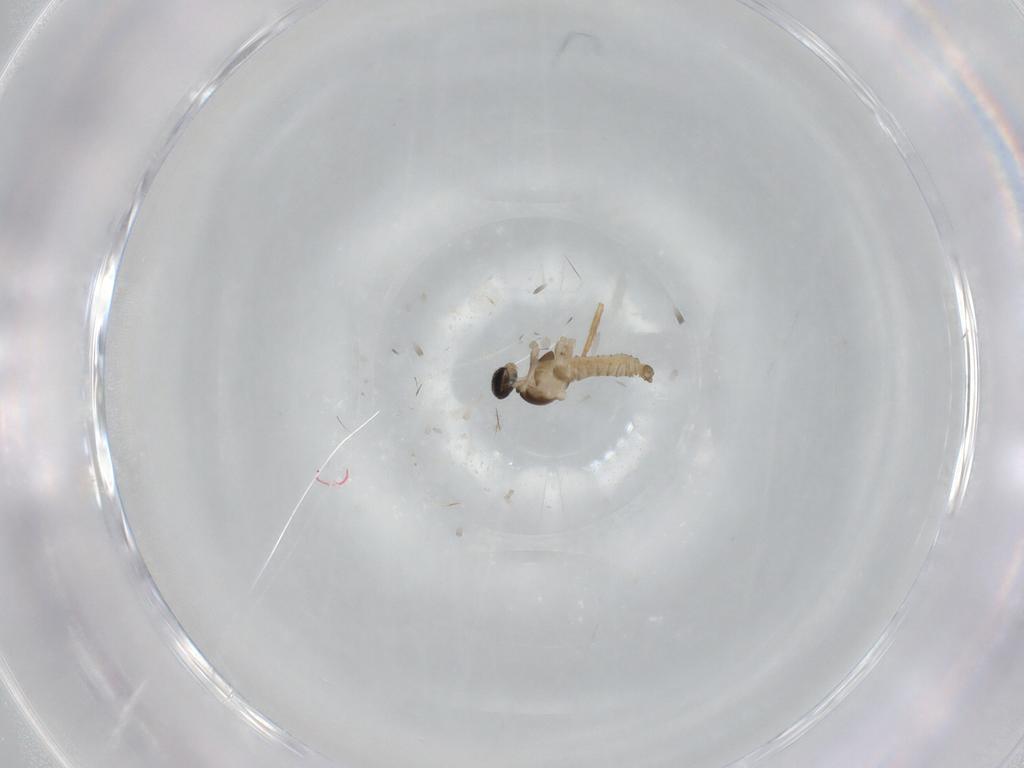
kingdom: Animalia
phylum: Arthropoda
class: Insecta
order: Diptera
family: Cecidomyiidae
